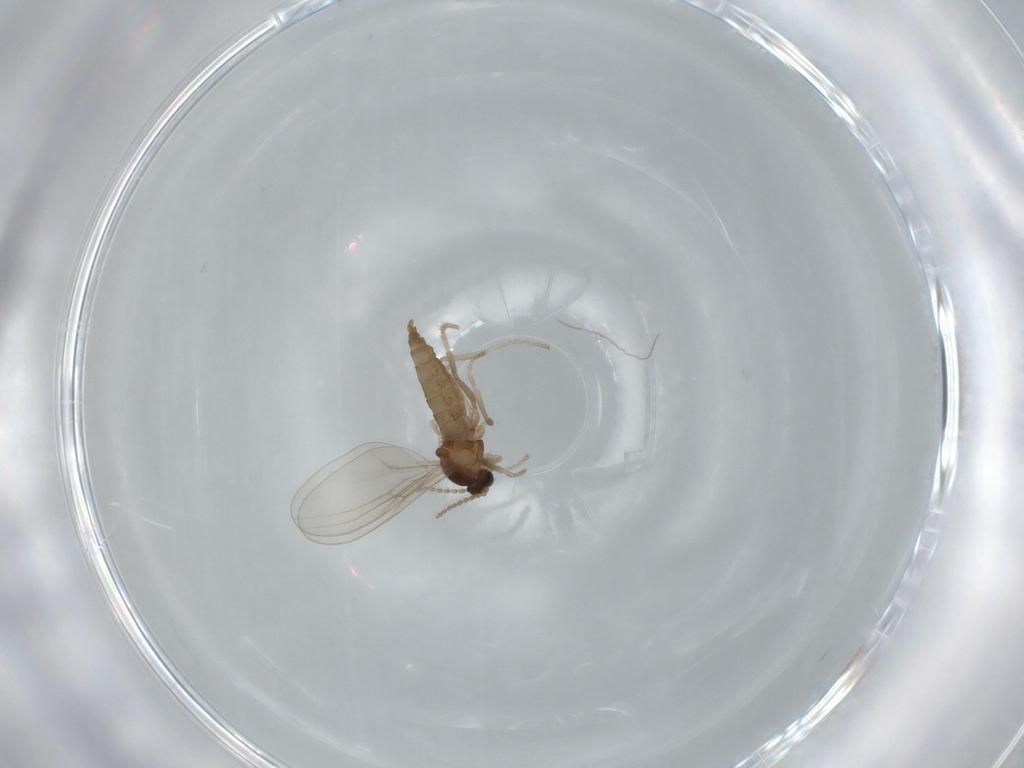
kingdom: Animalia
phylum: Arthropoda
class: Insecta
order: Diptera
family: Cecidomyiidae
